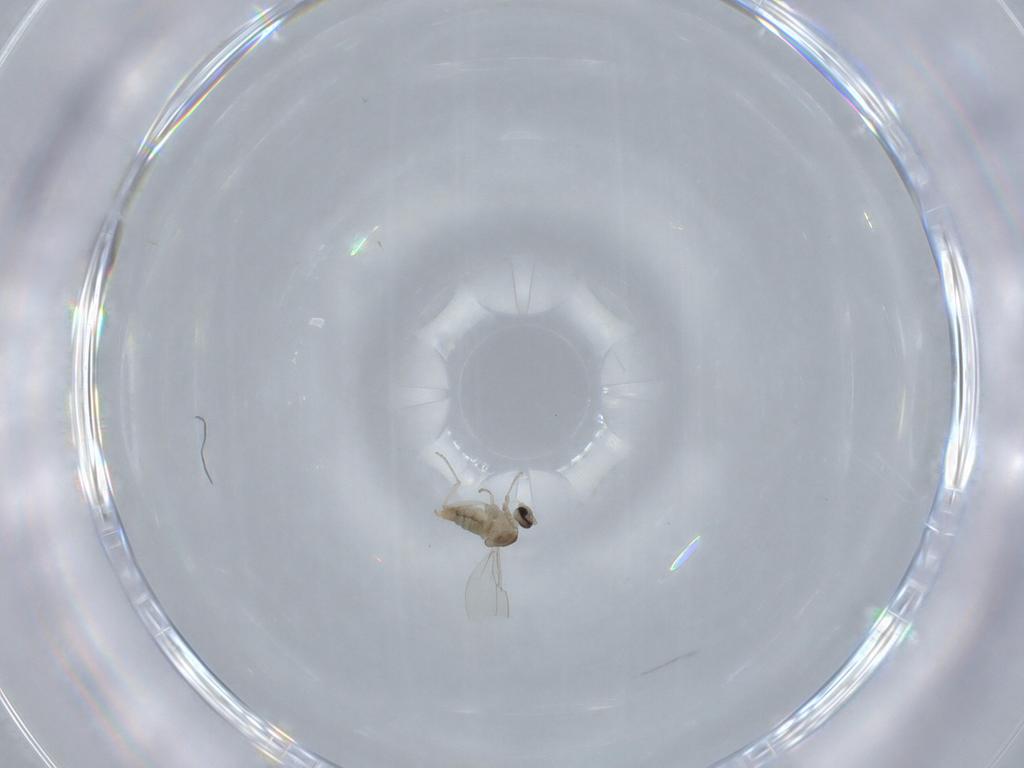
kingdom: Animalia
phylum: Arthropoda
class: Insecta
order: Diptera
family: Cecidomyiidae
